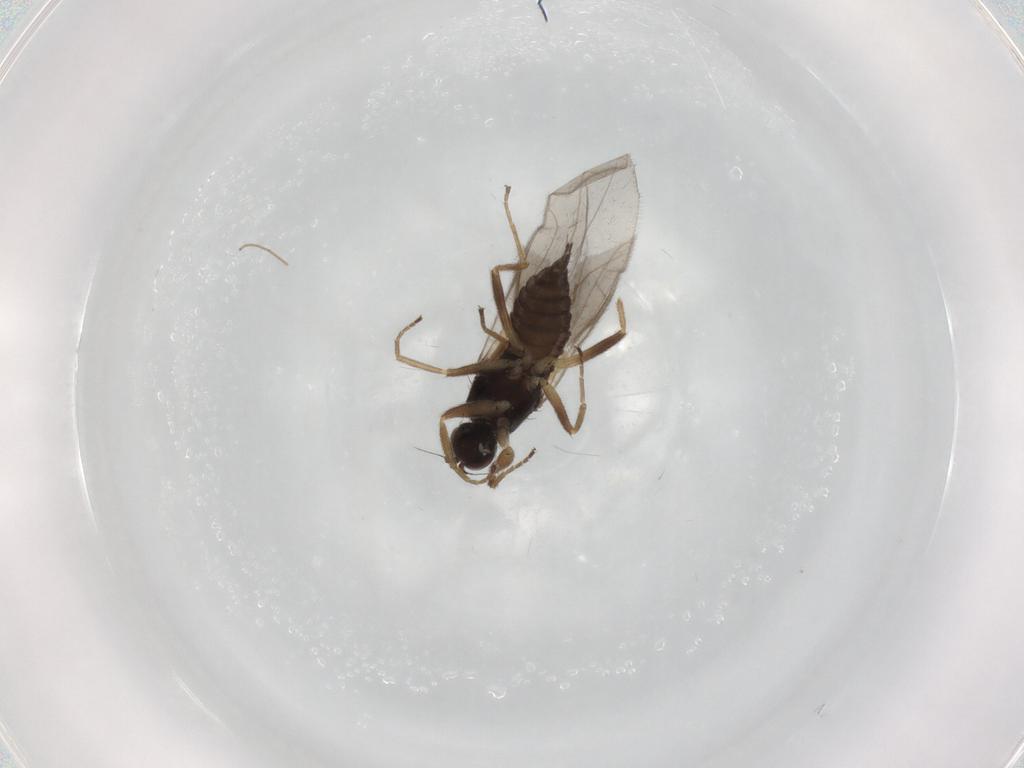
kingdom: Animalia
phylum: Arthropoda
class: Insecta
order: Diptera
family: Hybotidae
